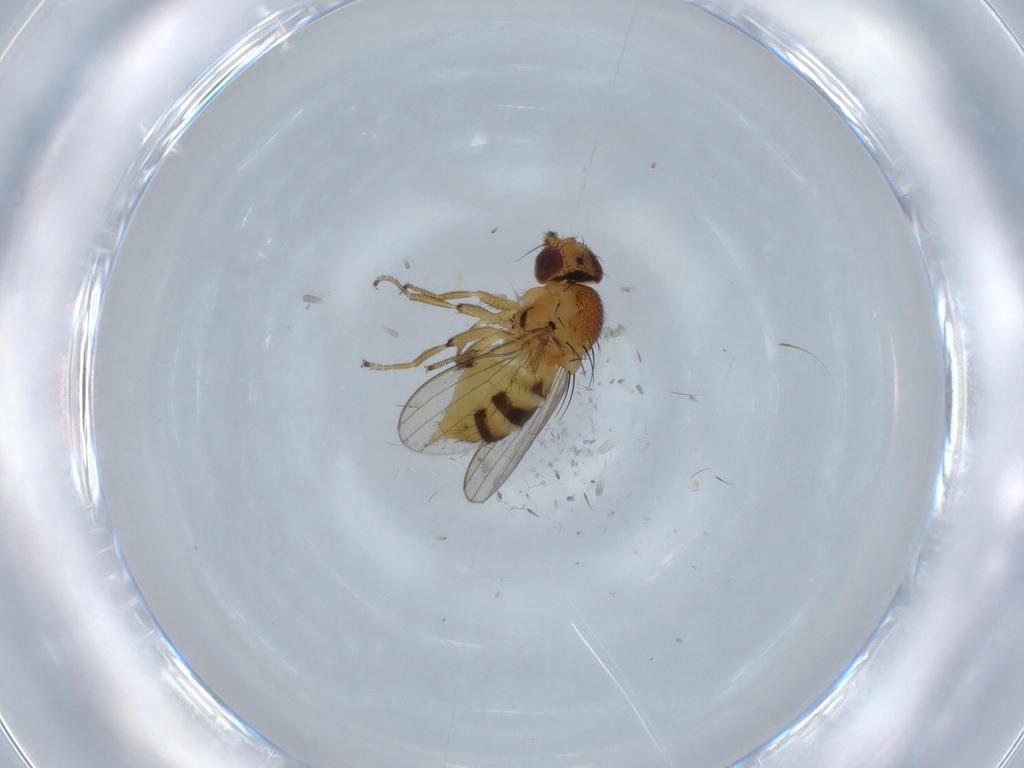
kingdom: Animalia
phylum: Arthropoda
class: Insecta
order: Diptera
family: Milichiidae
